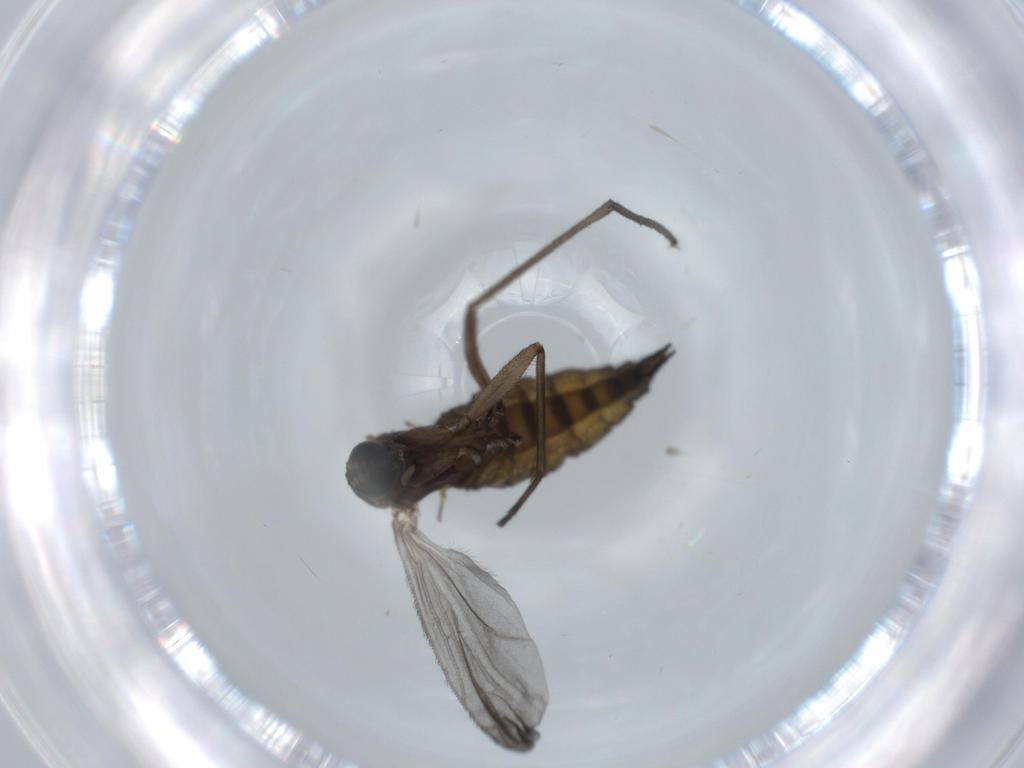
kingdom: Animalia
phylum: Arthropoda
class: Insecta
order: Diptera
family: Sciaridae
